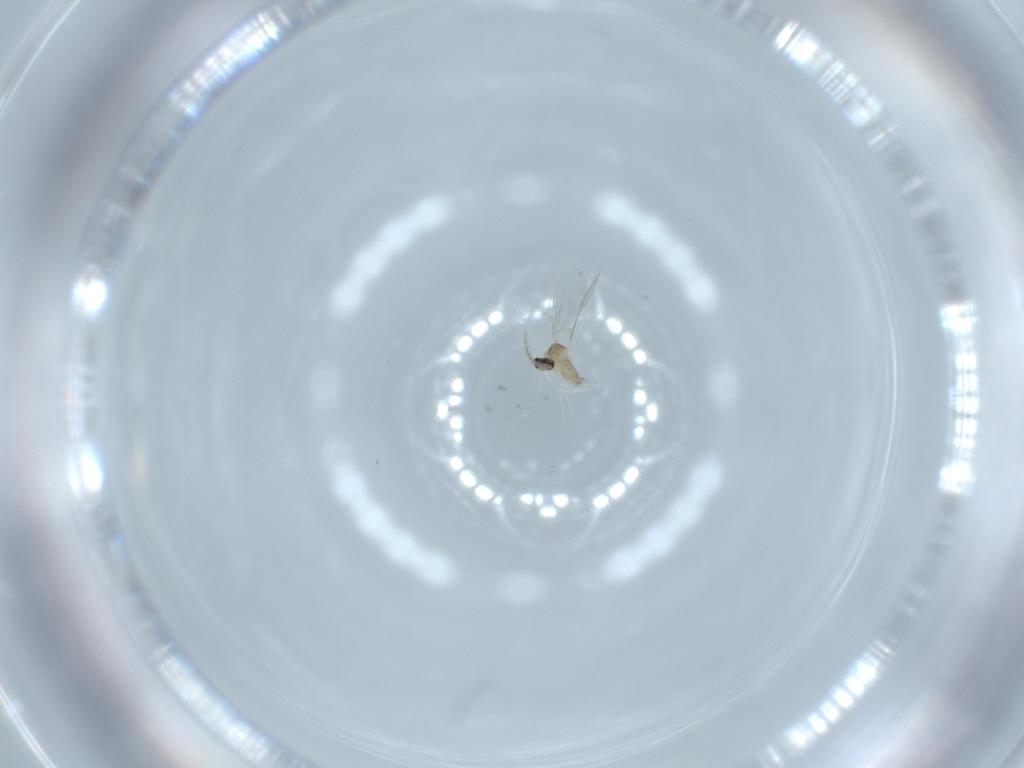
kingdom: Animalia
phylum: Arthropoda
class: Insecta
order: Diptera
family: Cecidomyiidae
